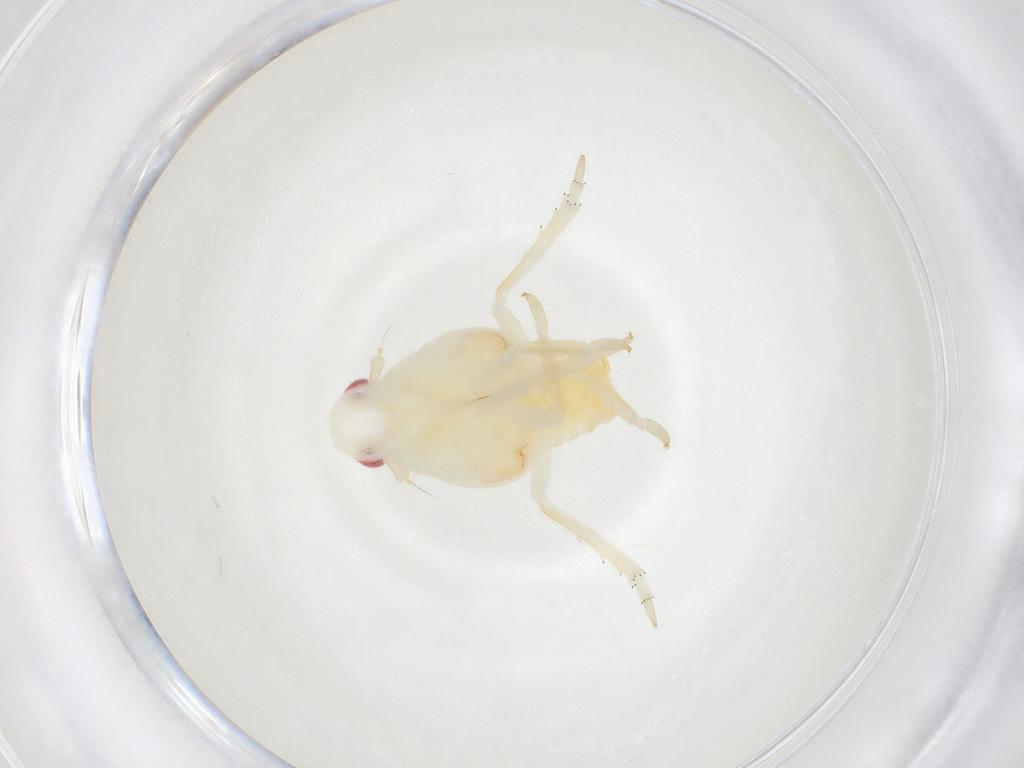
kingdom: Animalia
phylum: Arthropoda
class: Insecta
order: Hemiptera
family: Flatidae
